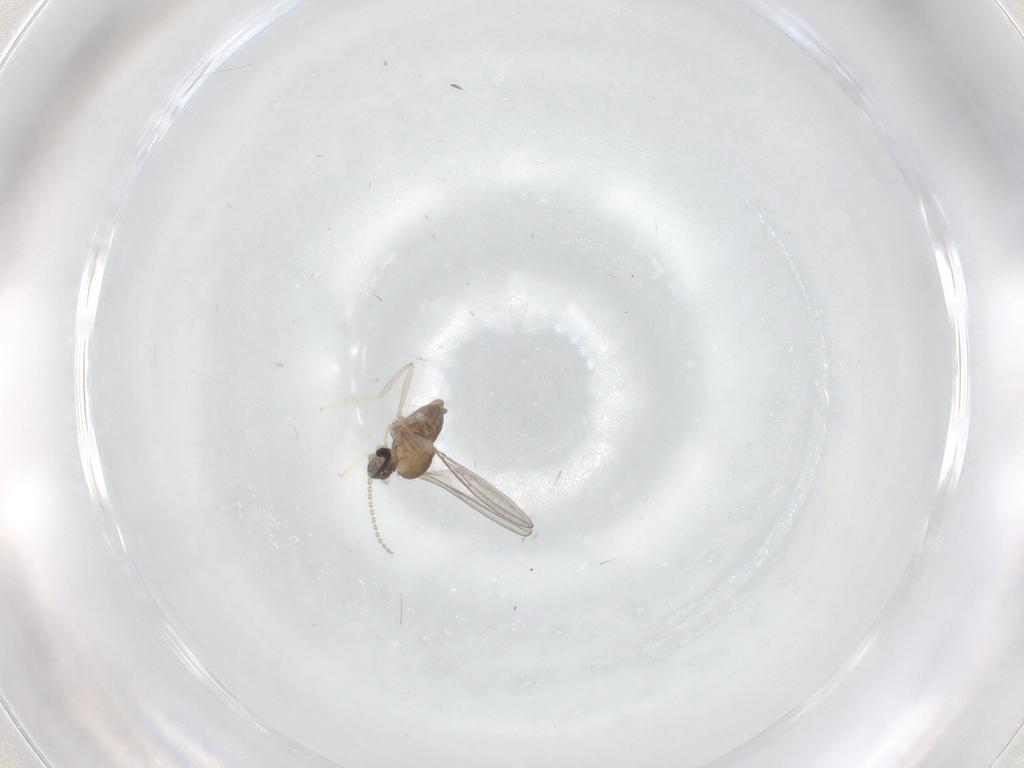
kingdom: Animalia
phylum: Arthropoda
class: Insecta
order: Diptera
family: Cecidomyiidae
